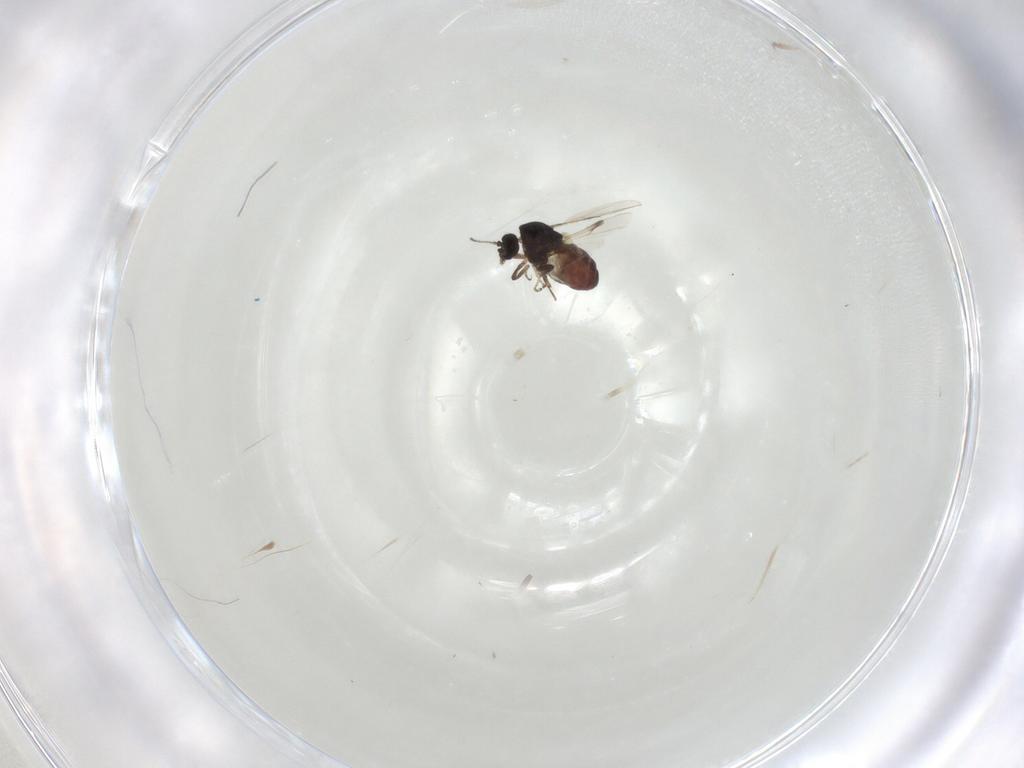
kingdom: Animalia
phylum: Arthropoda
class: Insecta
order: Diptera
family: Ceratopogonidae
